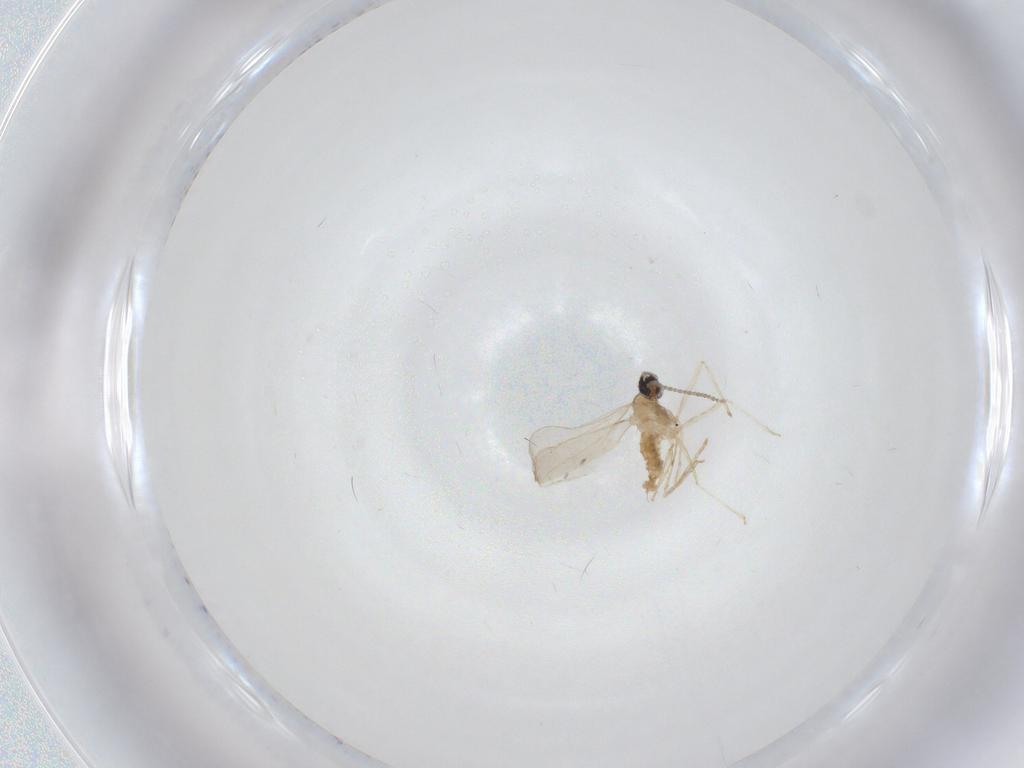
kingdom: Animalia
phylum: Arthropoda
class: Insecta
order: Diptera
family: Cecidomyiidae
